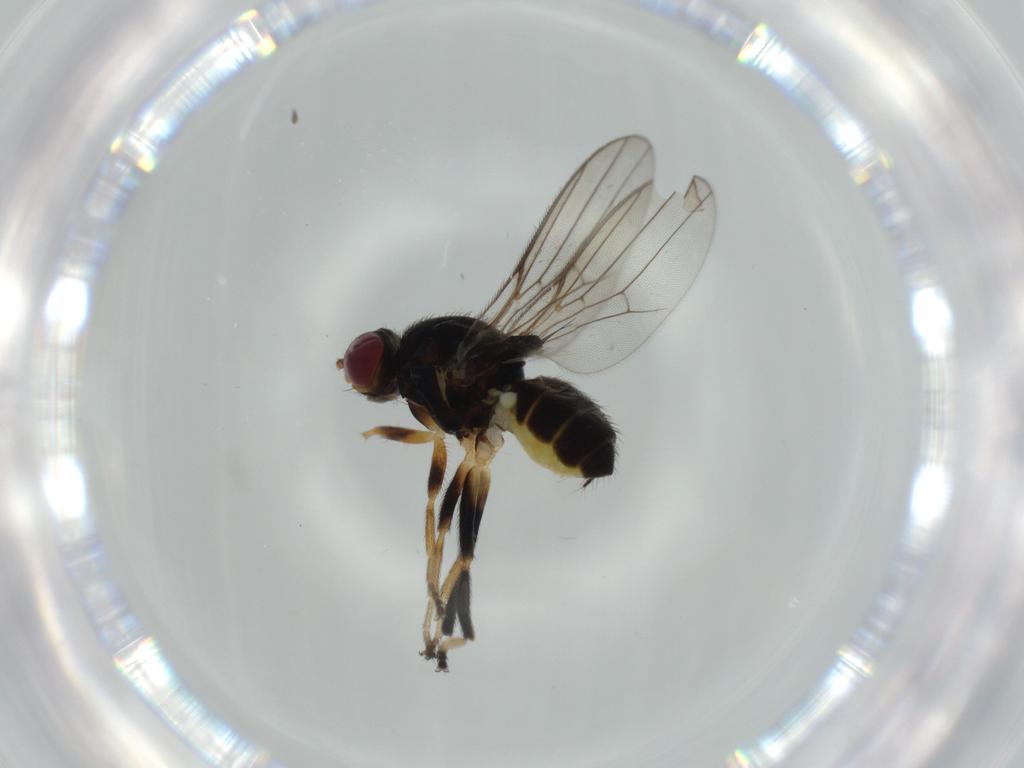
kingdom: Animalia
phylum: Arthropoda
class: Insecta
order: Diptera
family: Chloropidae
